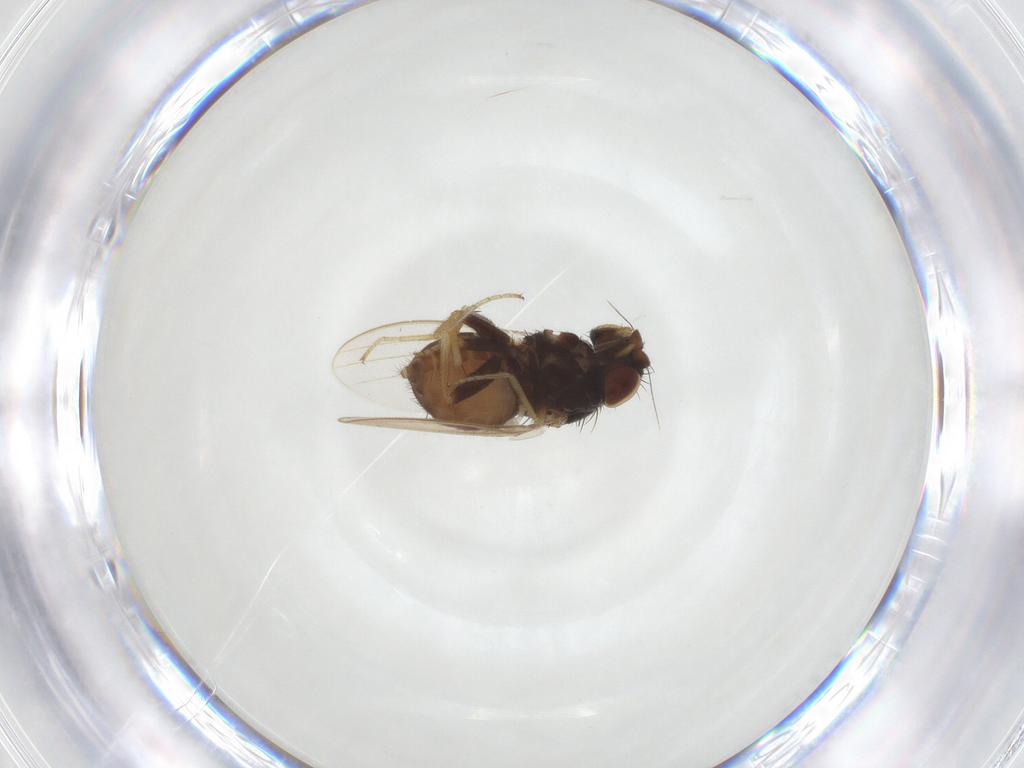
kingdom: Animalia
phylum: Arthropoda
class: Insecta
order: Diptera
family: Milichiidae
